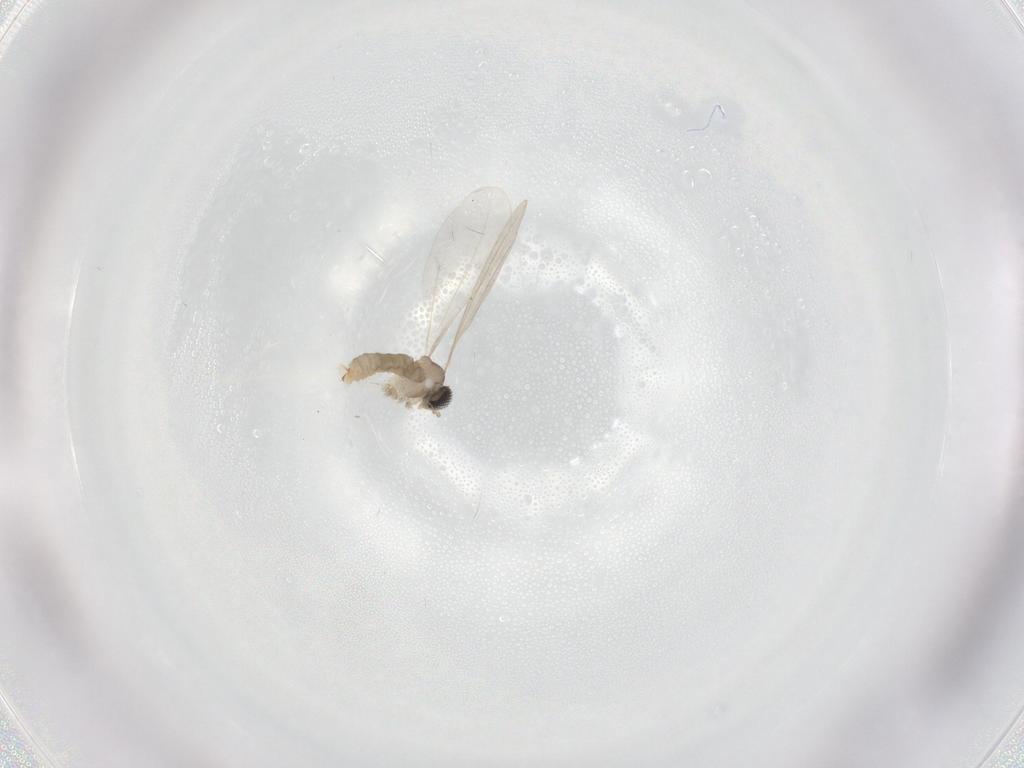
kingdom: Animalia
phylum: Arthropoda
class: Insecta
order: Diptera
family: Cecidomyiidae
